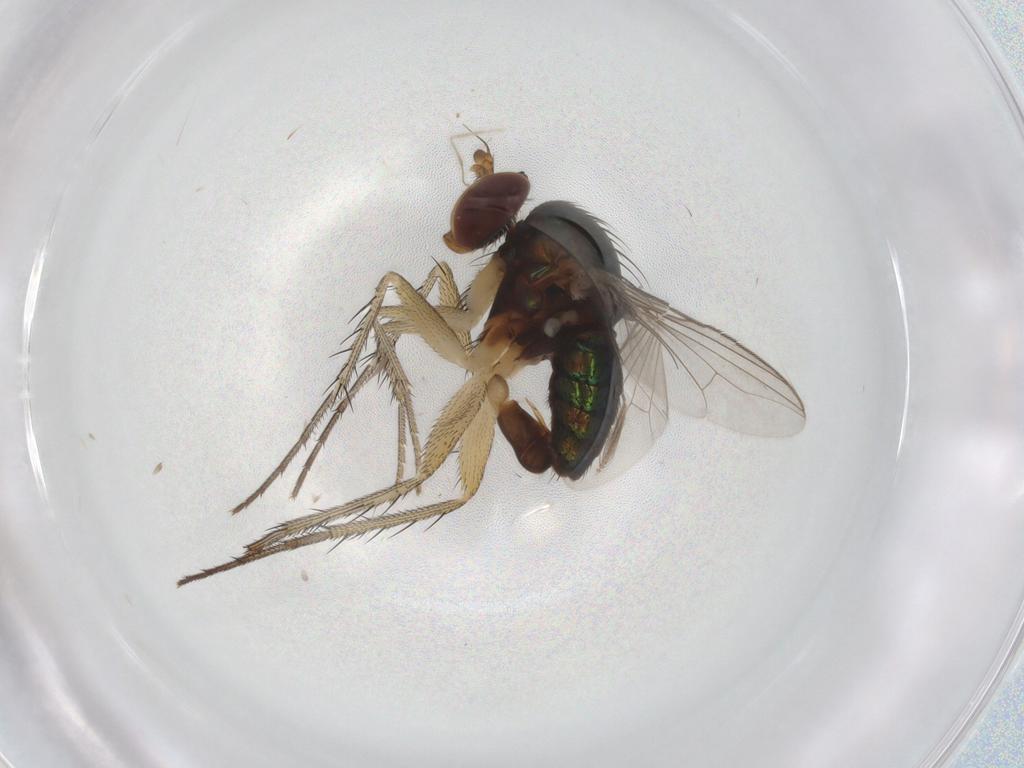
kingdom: Animalia
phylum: Arthropoda
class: Insecta
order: Diptera
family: Dolichopodidae
